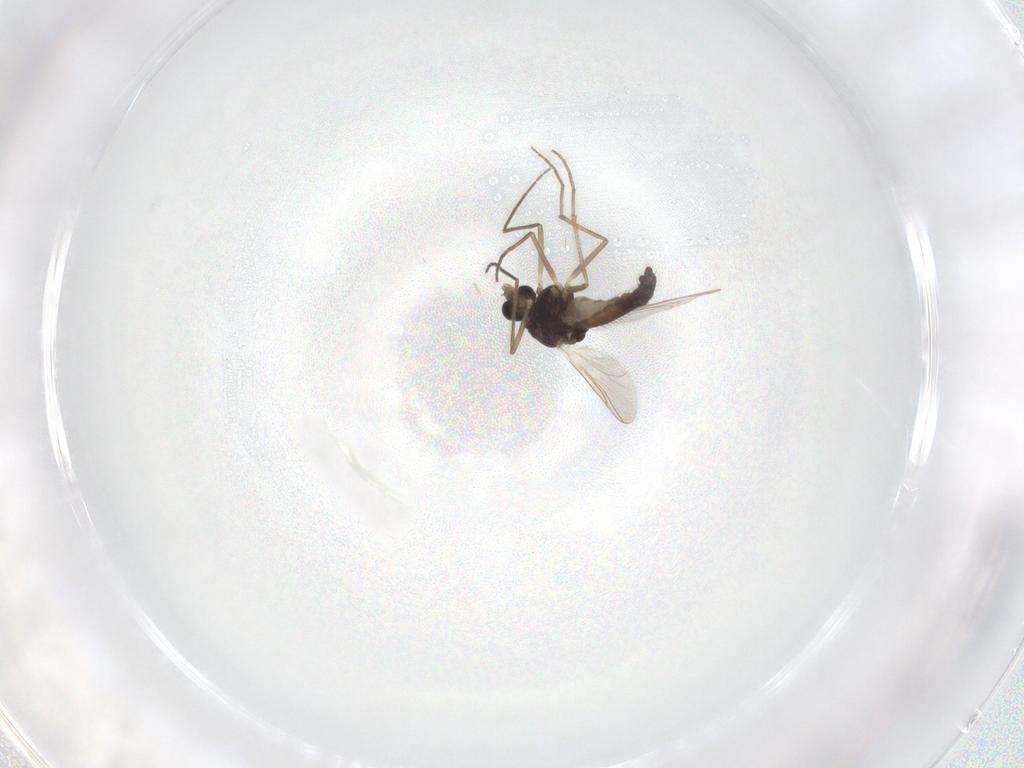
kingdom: Animalia
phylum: Arthropoda
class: Insecta
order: Diptera
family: Chironomidae
